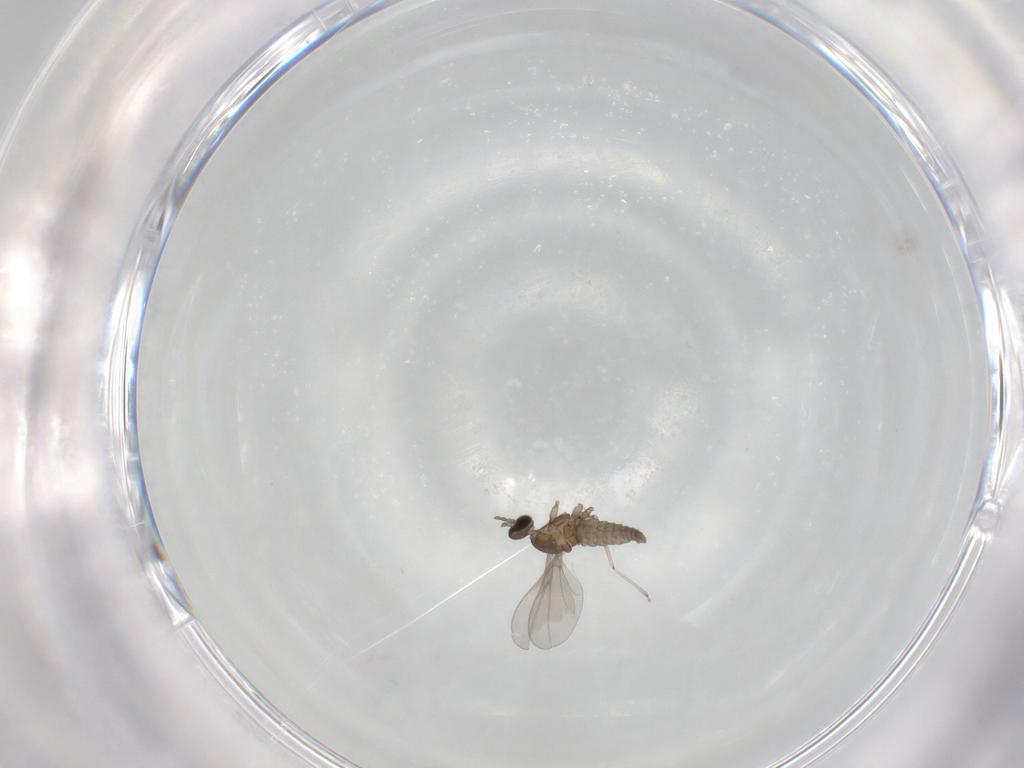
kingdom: Animalia
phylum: Arthropoda
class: Insecta
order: Diptera
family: Cecidomyiidae
